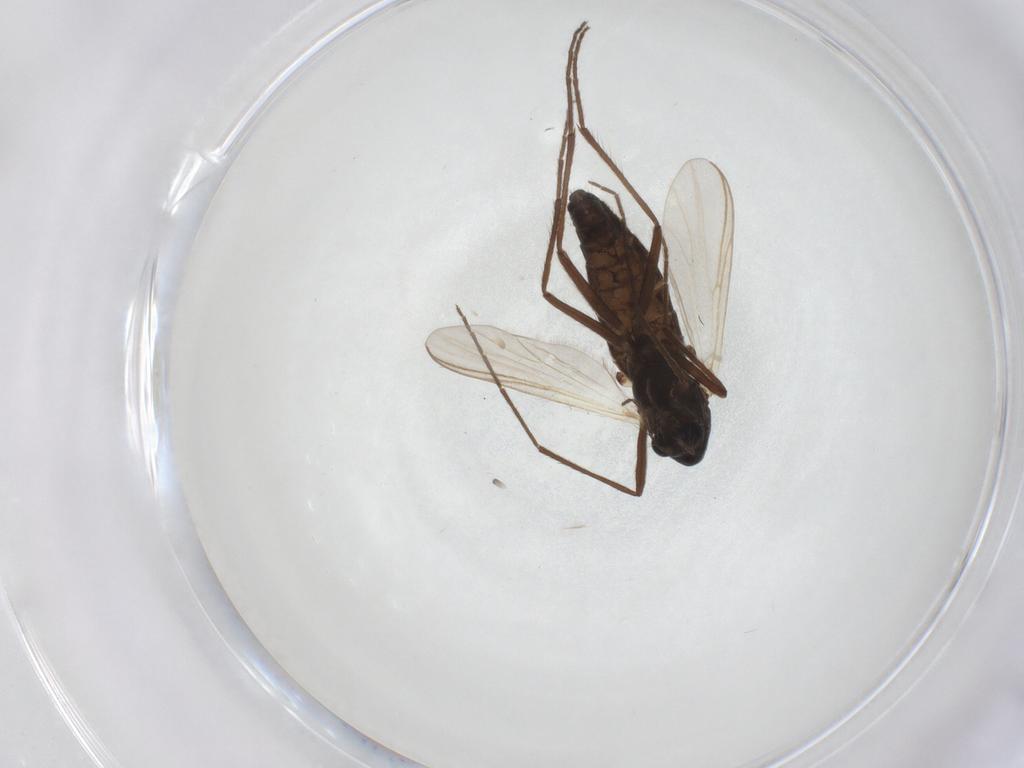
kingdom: Animalia
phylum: Arthropoda
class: Insecta
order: Diptera
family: Chironomidae
